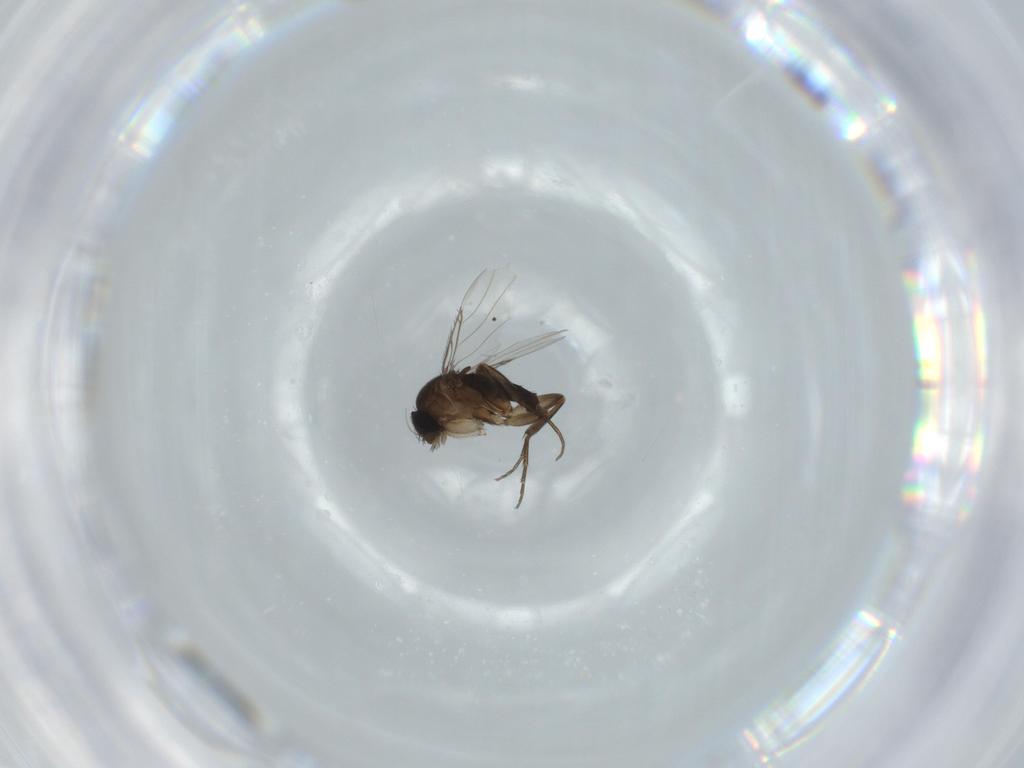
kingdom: Animalia
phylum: Arthropoda
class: Insecta
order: Diptera
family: Phoridae
